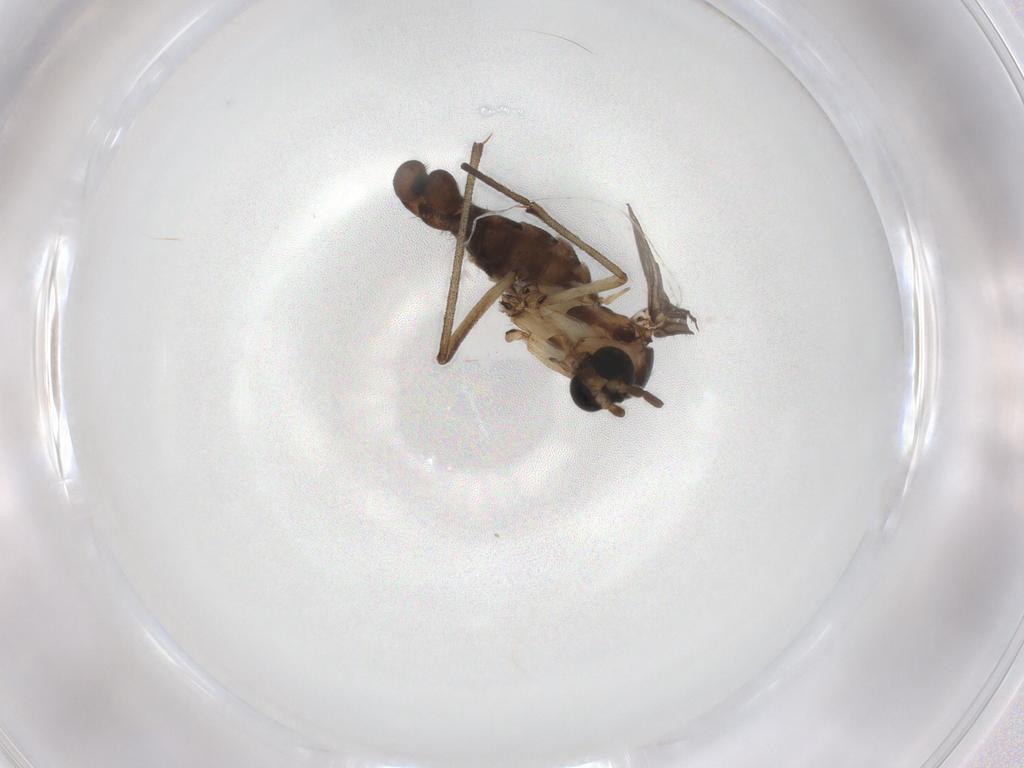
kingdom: Animalia
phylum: Arthropoda
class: Insecta
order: Diptera
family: Sciaridae
